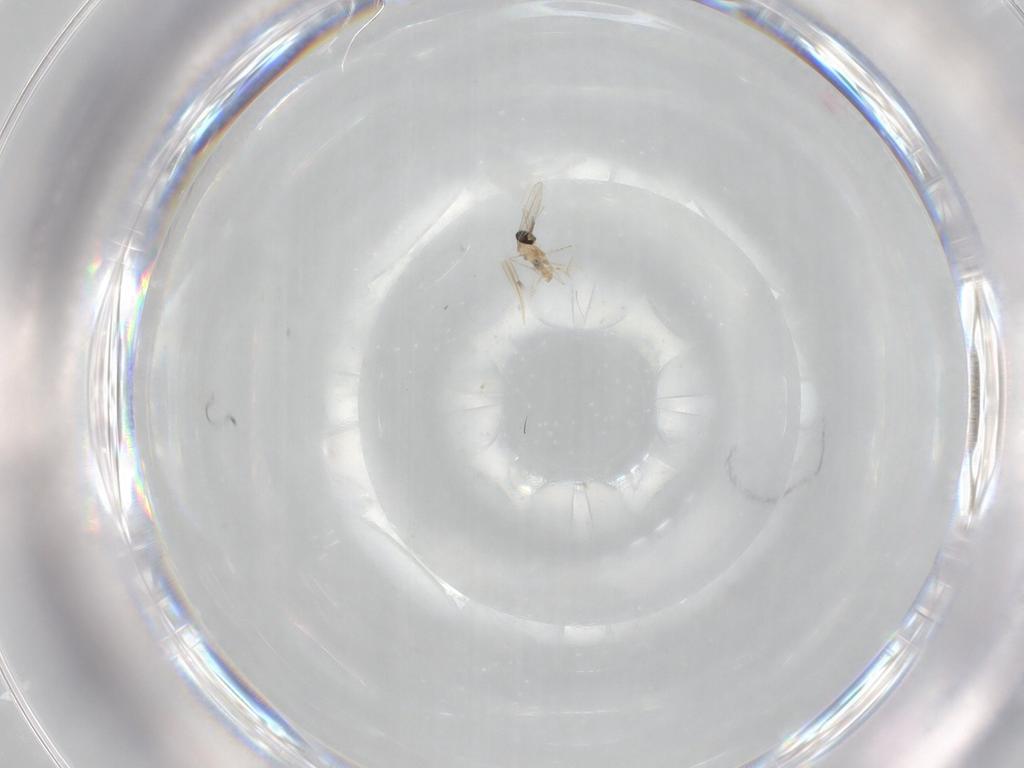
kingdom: Animalia
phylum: Arthropoda
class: Insecta
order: Diptera
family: Cecidomyiidae
